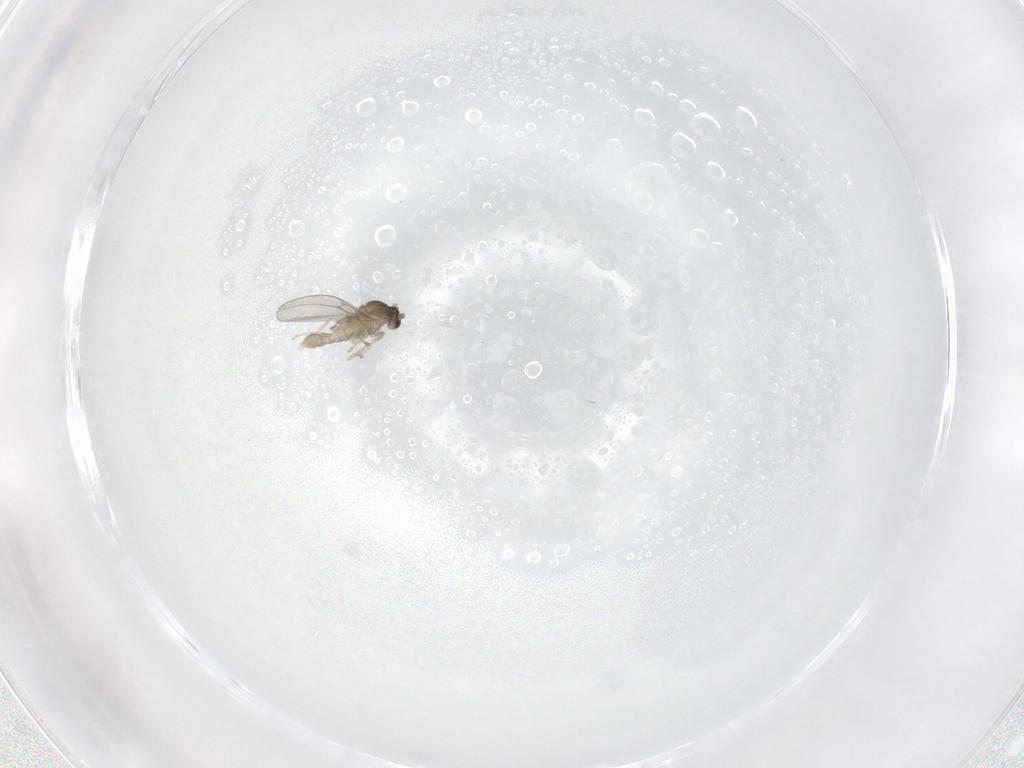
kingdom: Animalia
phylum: Arthropoda
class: Insecta
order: Diptera
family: Cecidomyiidae
